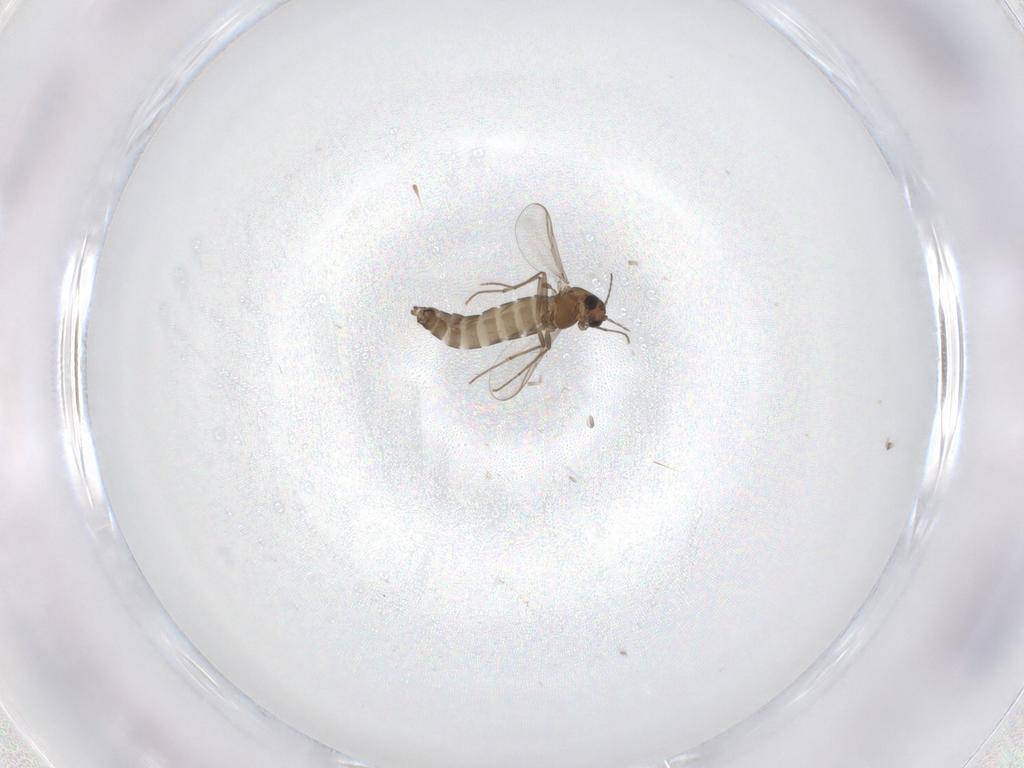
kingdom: Animalia
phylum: Arthropoda
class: Insecta
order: Diptera
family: Chironomidae
